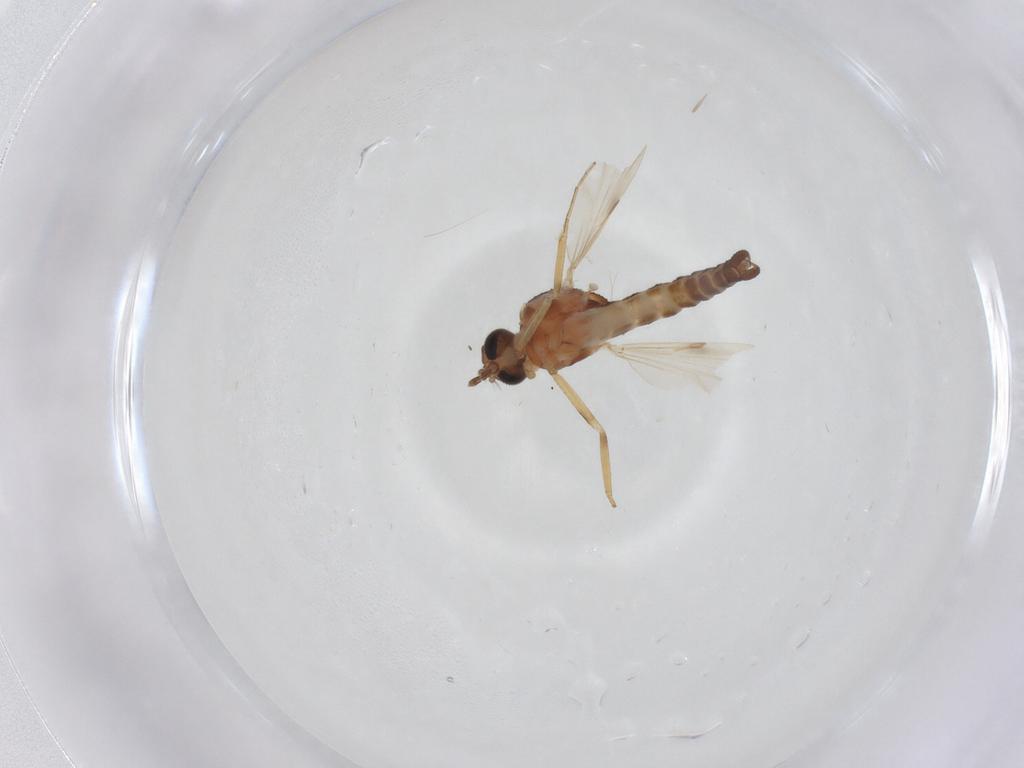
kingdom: Animalia
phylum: Arthropoda
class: Insecta
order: Diptera
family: Ceratopogonidae
